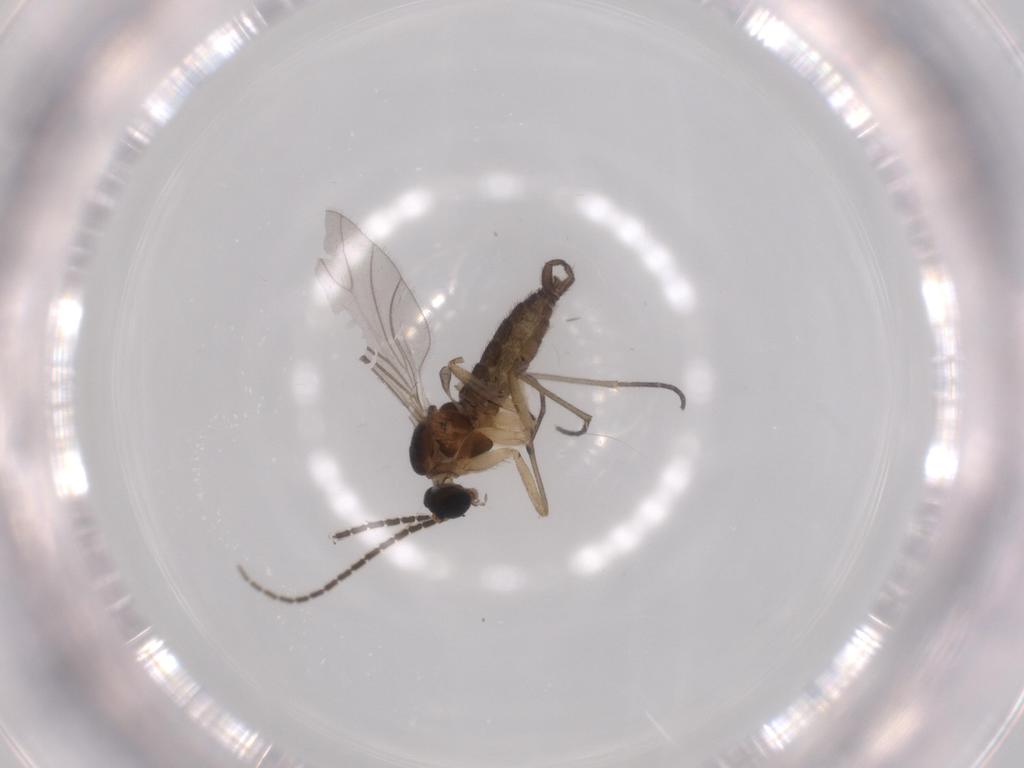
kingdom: Animalia
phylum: Arthropoda
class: Insecta
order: Diptera
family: Sciaridae
